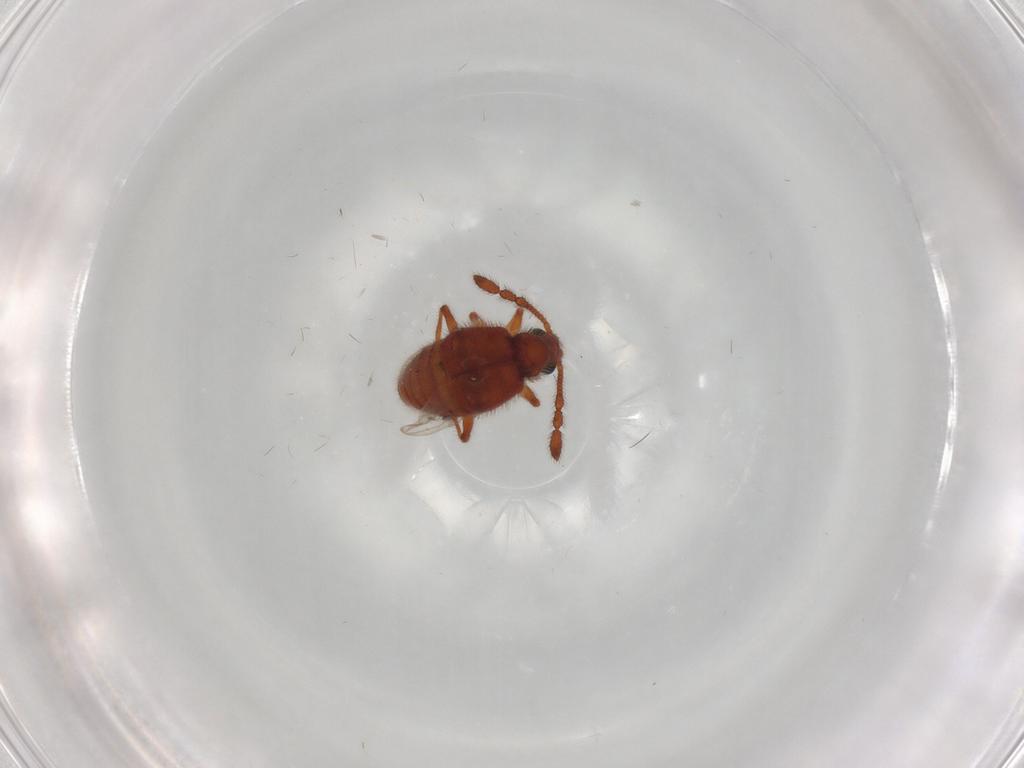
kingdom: Animalia
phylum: Arthropoda
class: Insecta
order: Coleoptera
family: Staphylinidae
